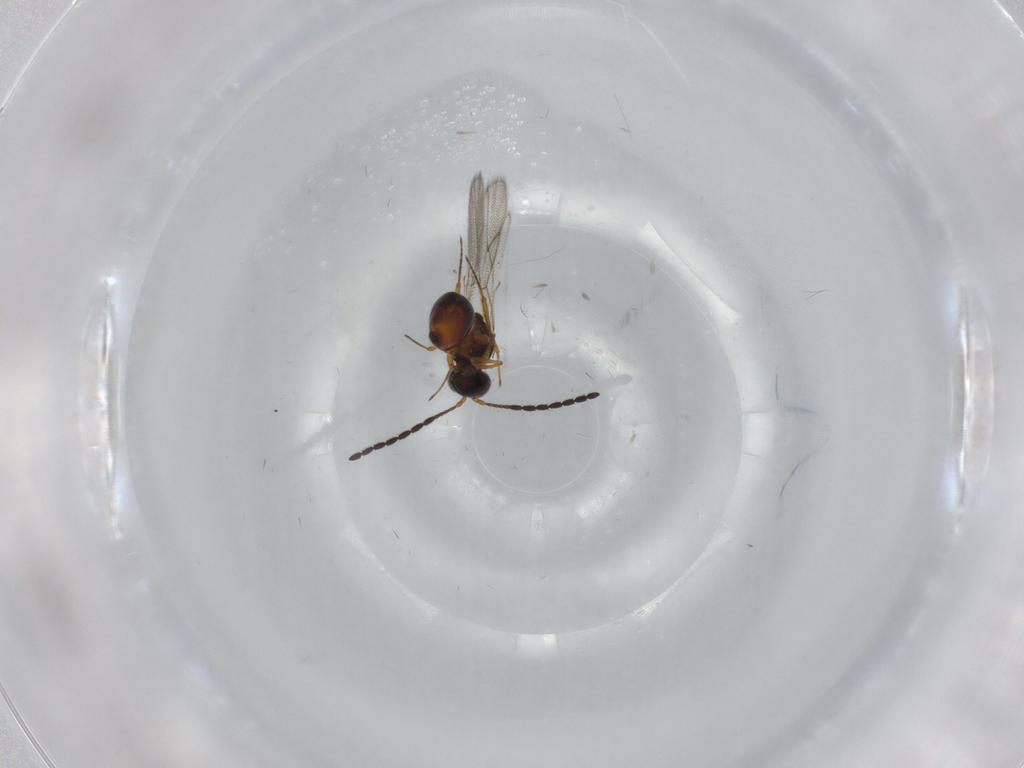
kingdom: Animalia
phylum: Arthropoda
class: Insecta
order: Hymenoptera
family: Figitidae
